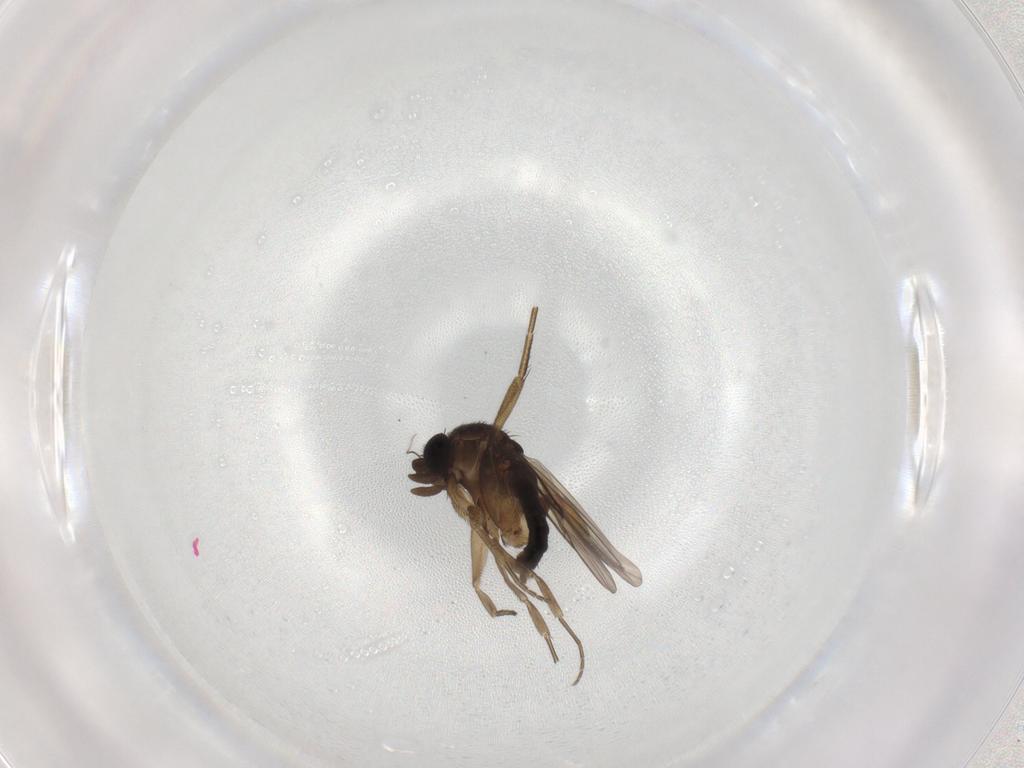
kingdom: Animalia
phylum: Arthropoda
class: Insecta
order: Diptera
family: Phoridae
